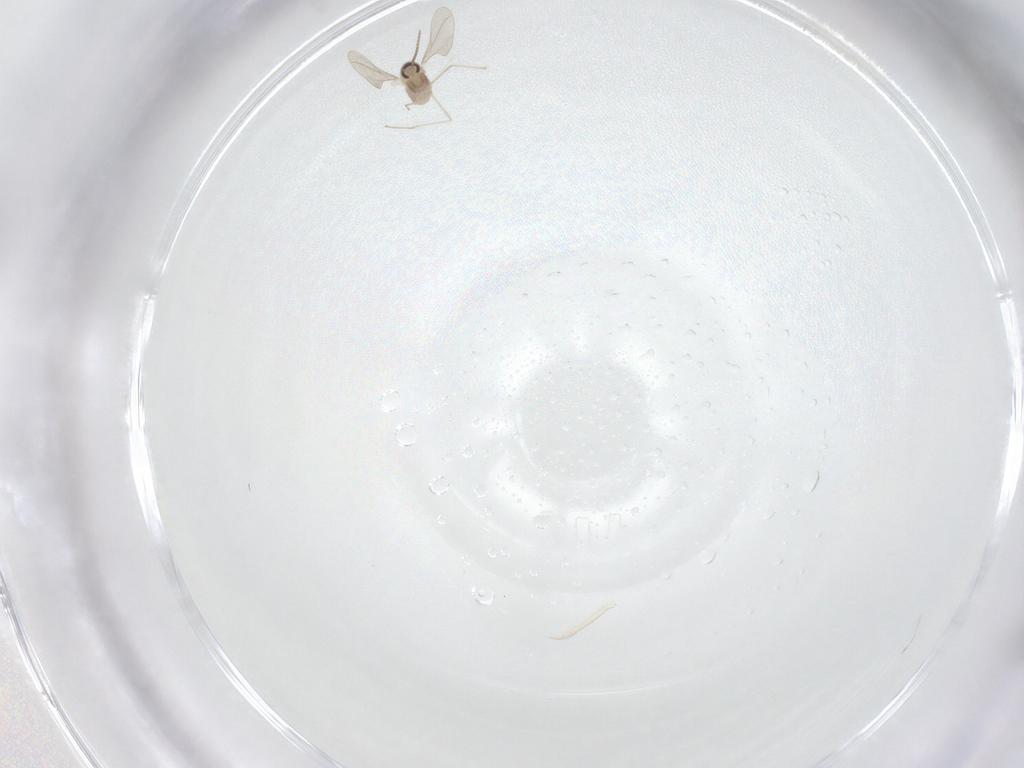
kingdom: Animalia
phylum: Arthropoda
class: Insecta
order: Diptera
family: Cecidomyiidae
